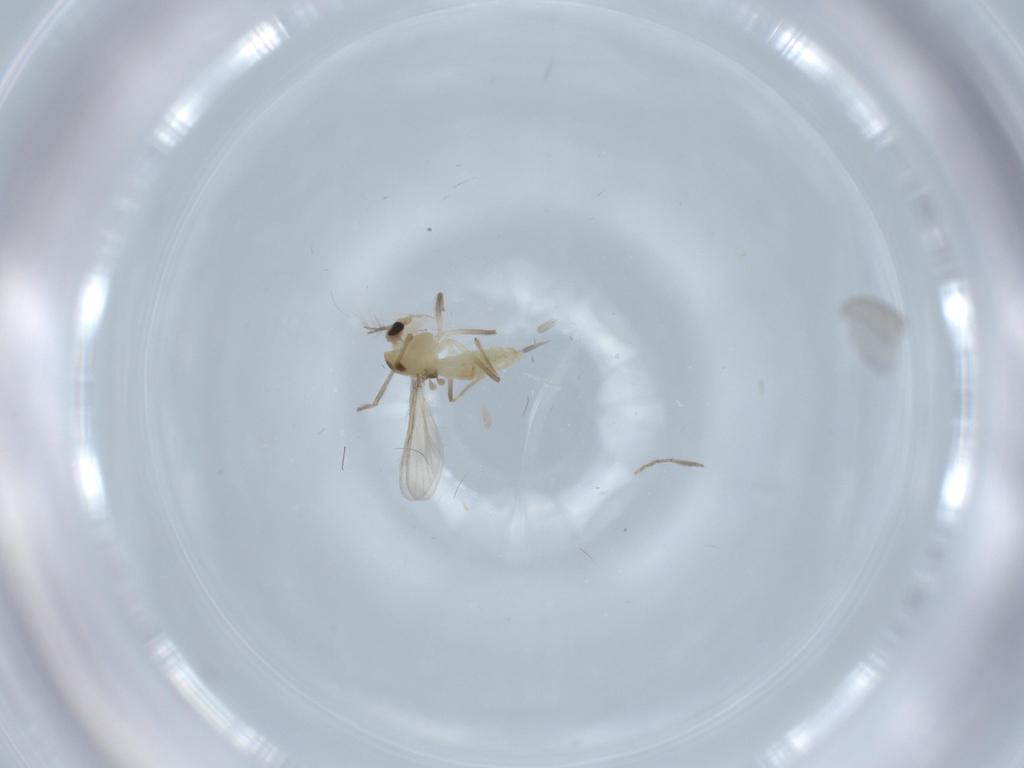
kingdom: Animalia
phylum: Arthropoda
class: Insecta
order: Diptera
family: Chironomidae
